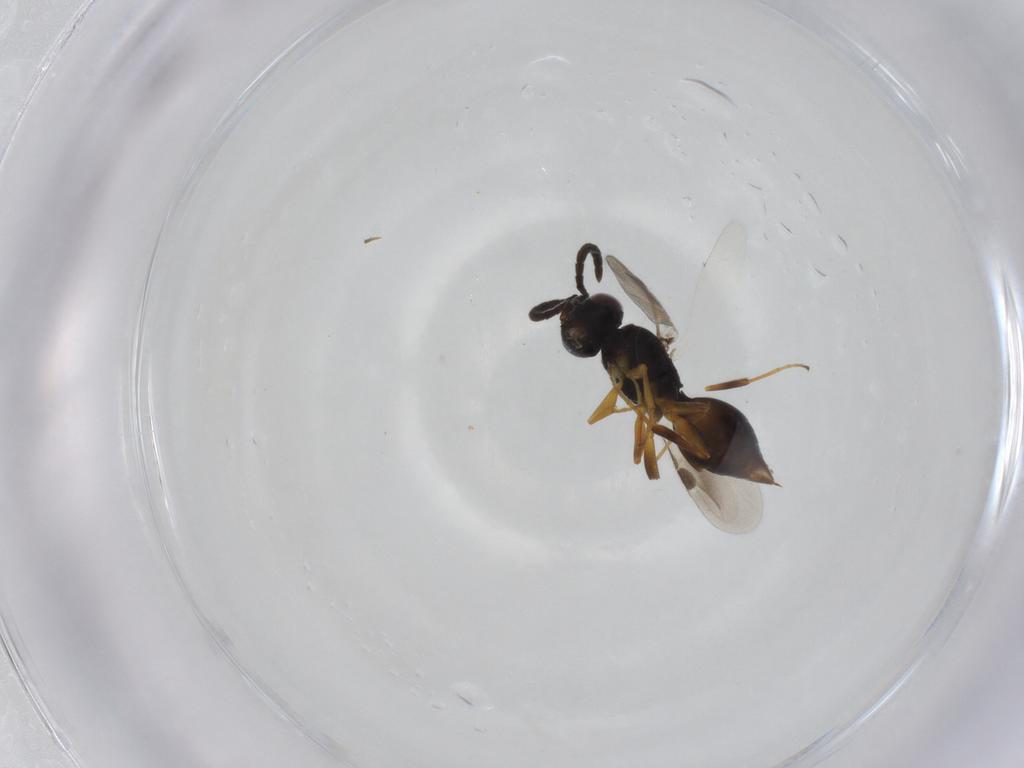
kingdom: Animalia
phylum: Arthropoda
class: Insecta
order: Hymenoptera
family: Megaspilidae
